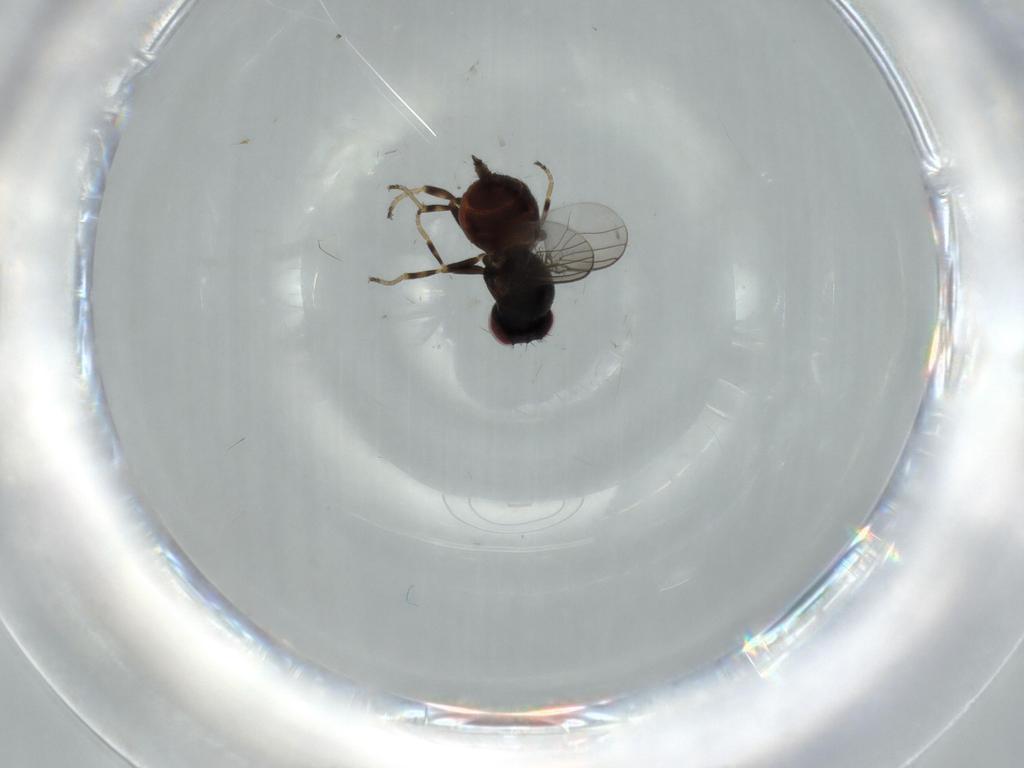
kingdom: Animalia
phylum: Arthropoda
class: Insecta
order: Diptera
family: Chloropidae
